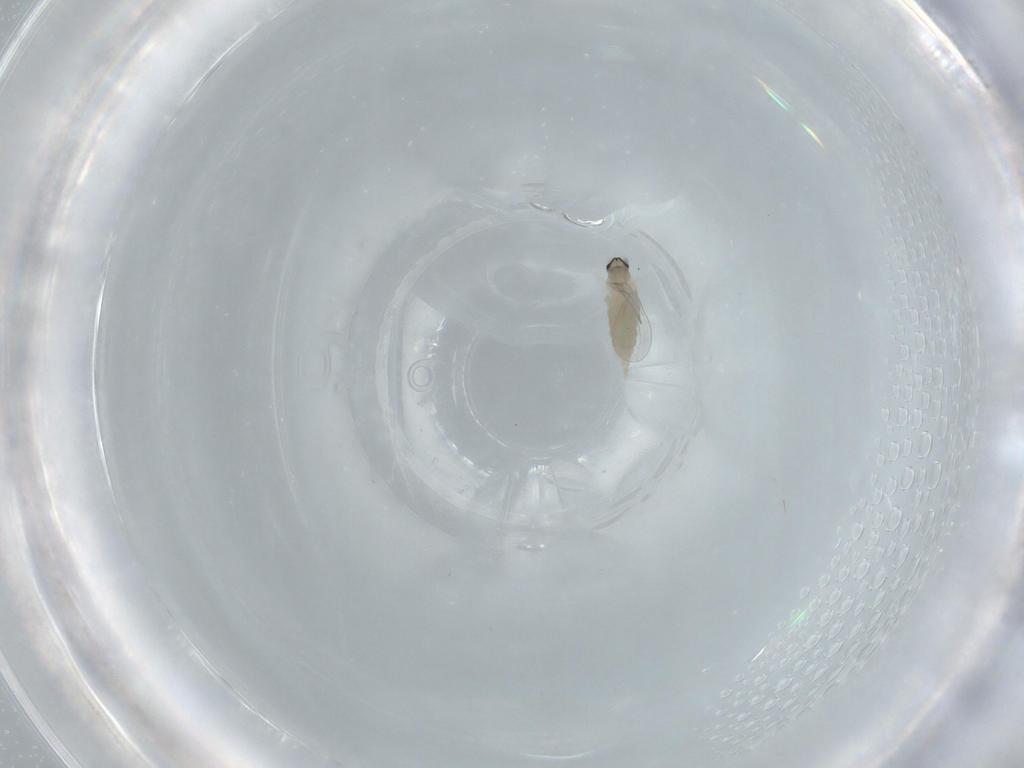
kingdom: Animalia
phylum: Arthropoda
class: Insecta
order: Diptera
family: Cecidomyiidae
